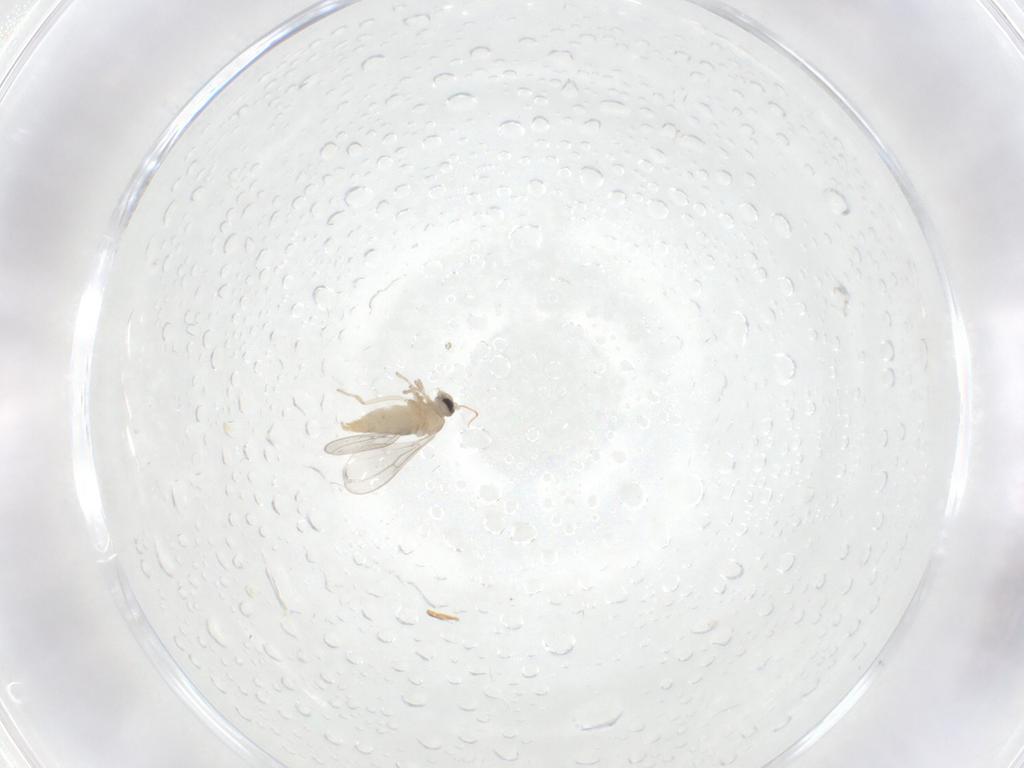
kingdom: Animalia
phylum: Arthropoda
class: Insecta
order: Diptera
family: Cecidomyiidae
